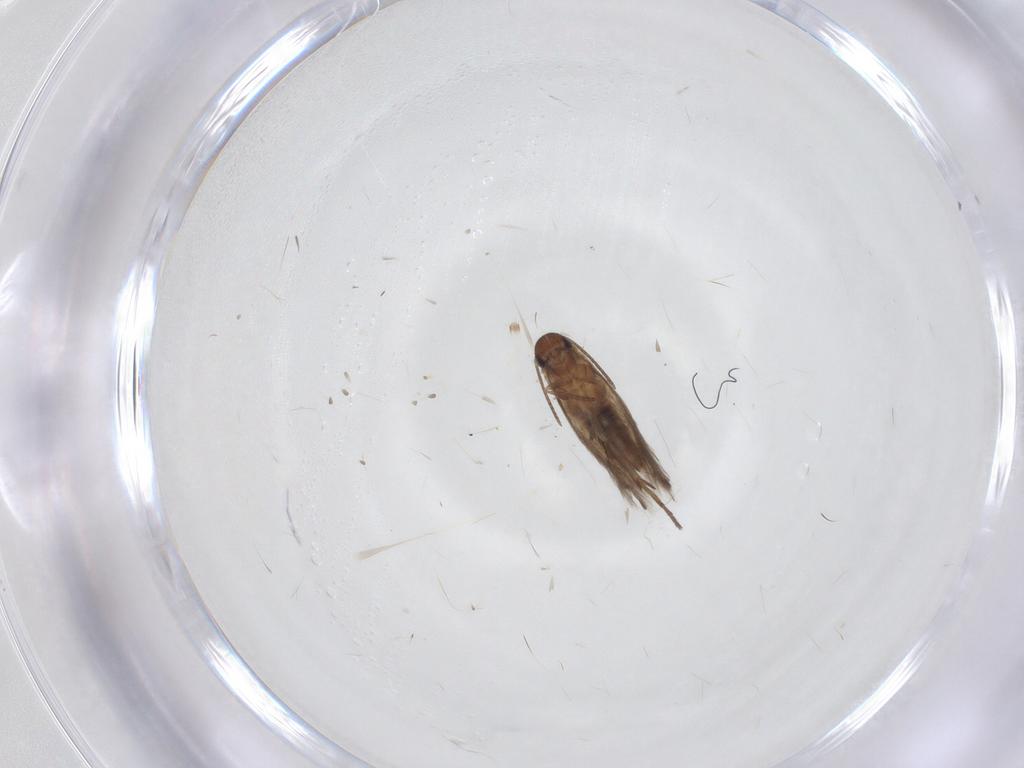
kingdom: Animalia
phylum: Arthropoda
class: Insecta
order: Lepidoptera
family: Heliozelidae
